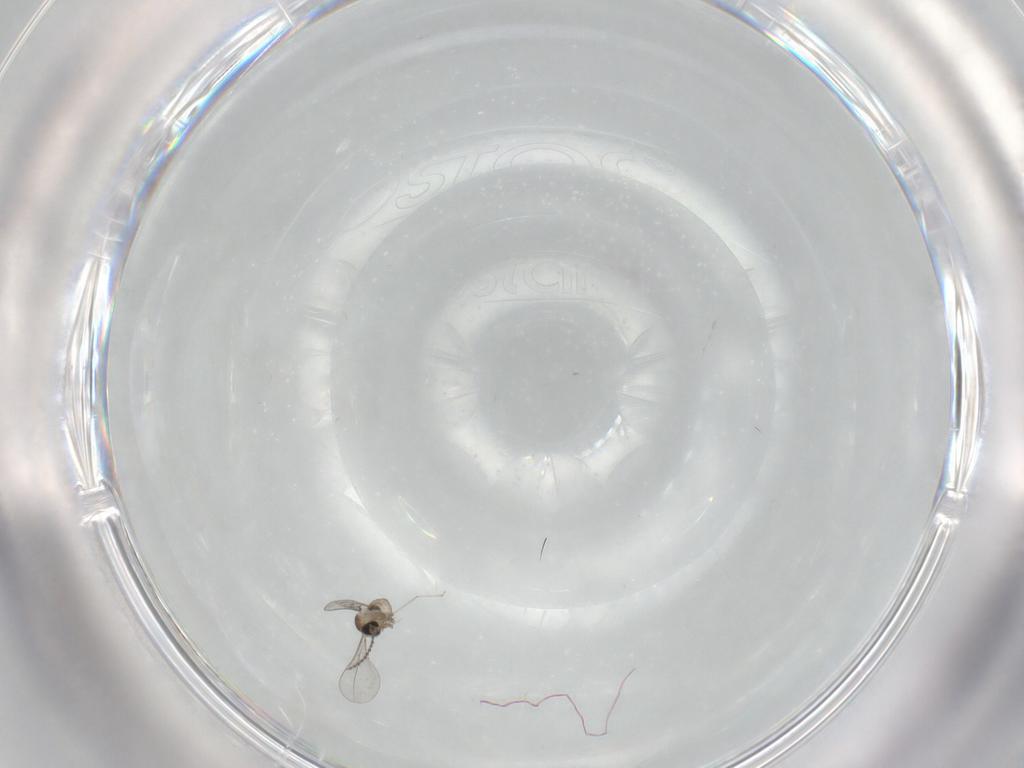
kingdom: Animalia
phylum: Arthropoda
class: Insecta
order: Diptera
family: Cecidomyiidae
